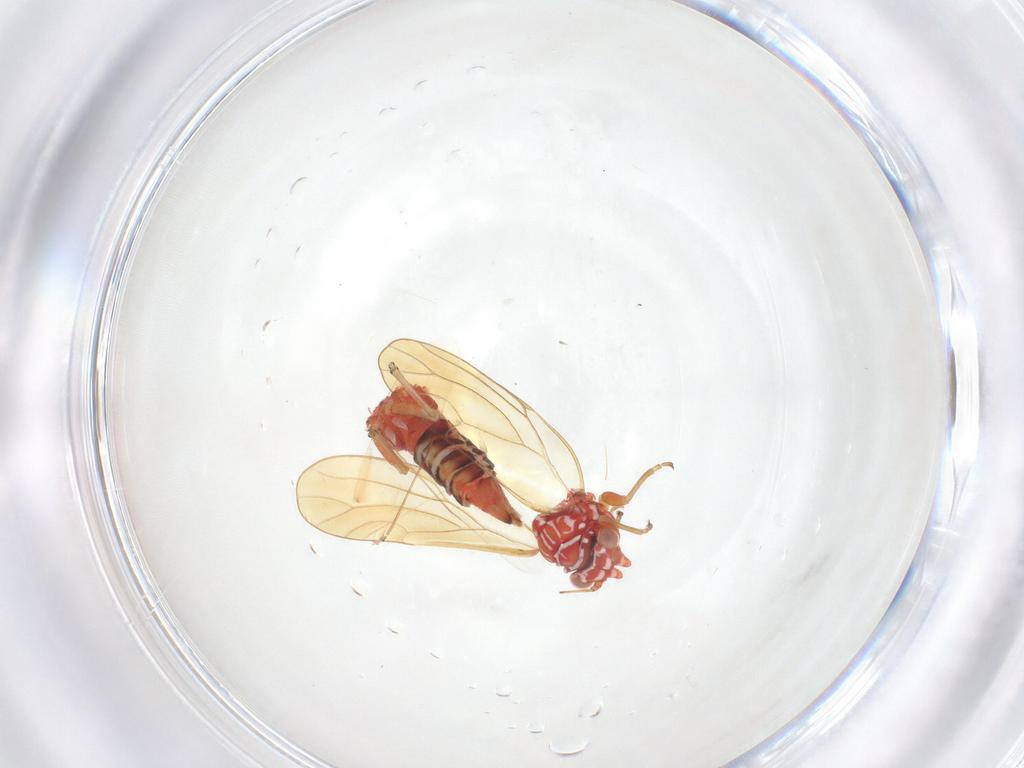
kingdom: Animalia
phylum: Arthropoda
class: Insecta
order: Hemiptera
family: Psyllidae
